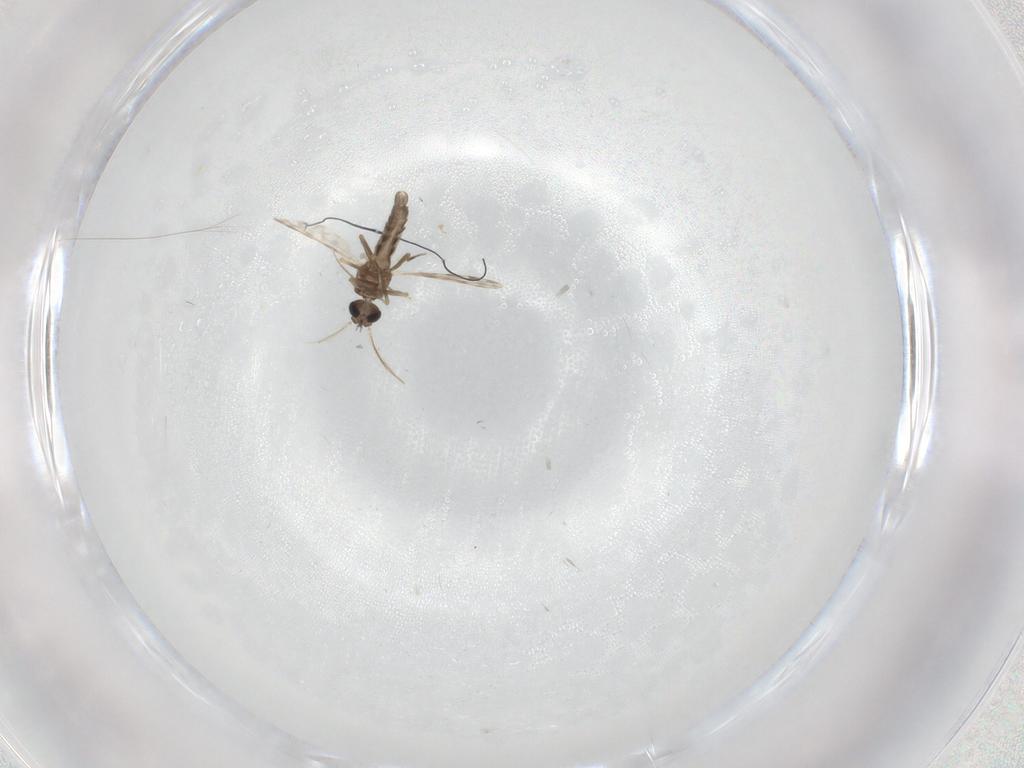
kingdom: Animalia
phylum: Arthropoda
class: Insecta
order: Diptera
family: Ceratopogonidae
